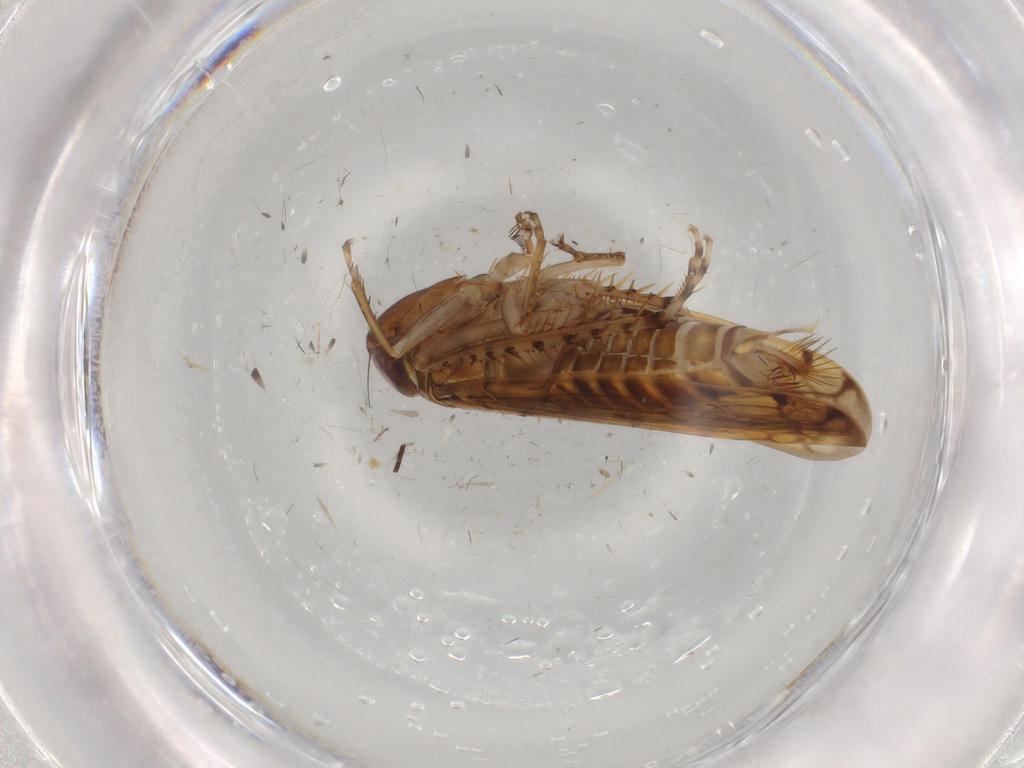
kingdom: Animalia
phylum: Arthropoda
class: Insecta
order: Hemiptera
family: Cicadellidae
